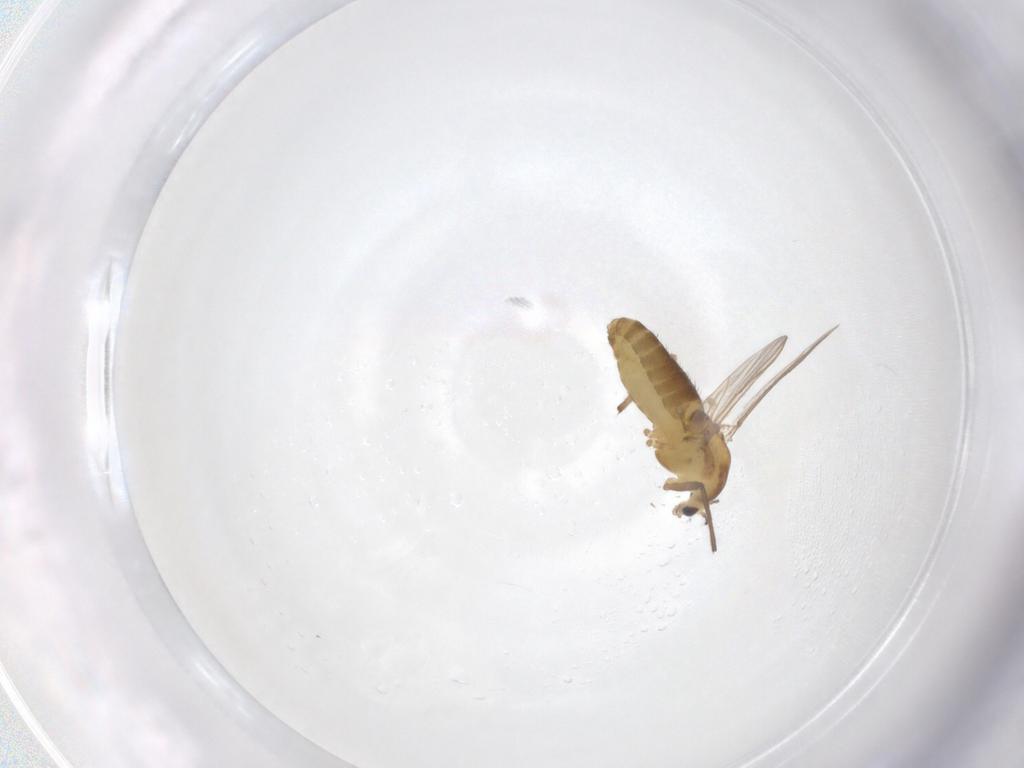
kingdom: Animalia
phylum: Arthropoda
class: Insecta
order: Diptera
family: Chironomidae
